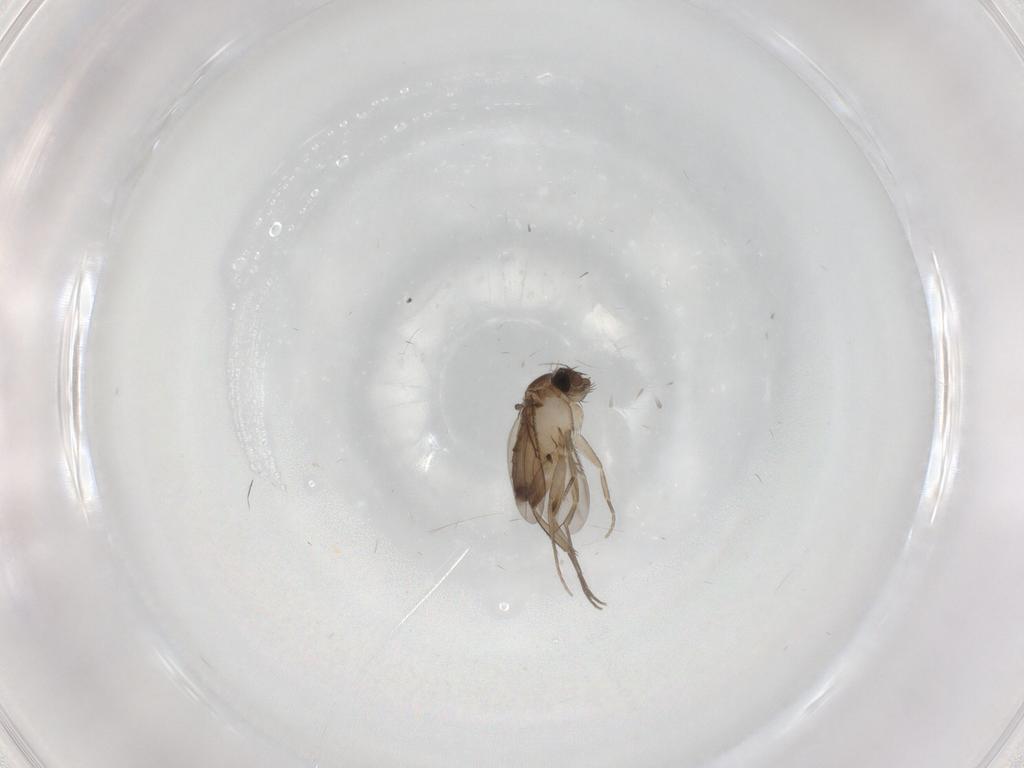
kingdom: Animalia
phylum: Arthropoda
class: Insecta
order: Diptera
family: Phoridae
